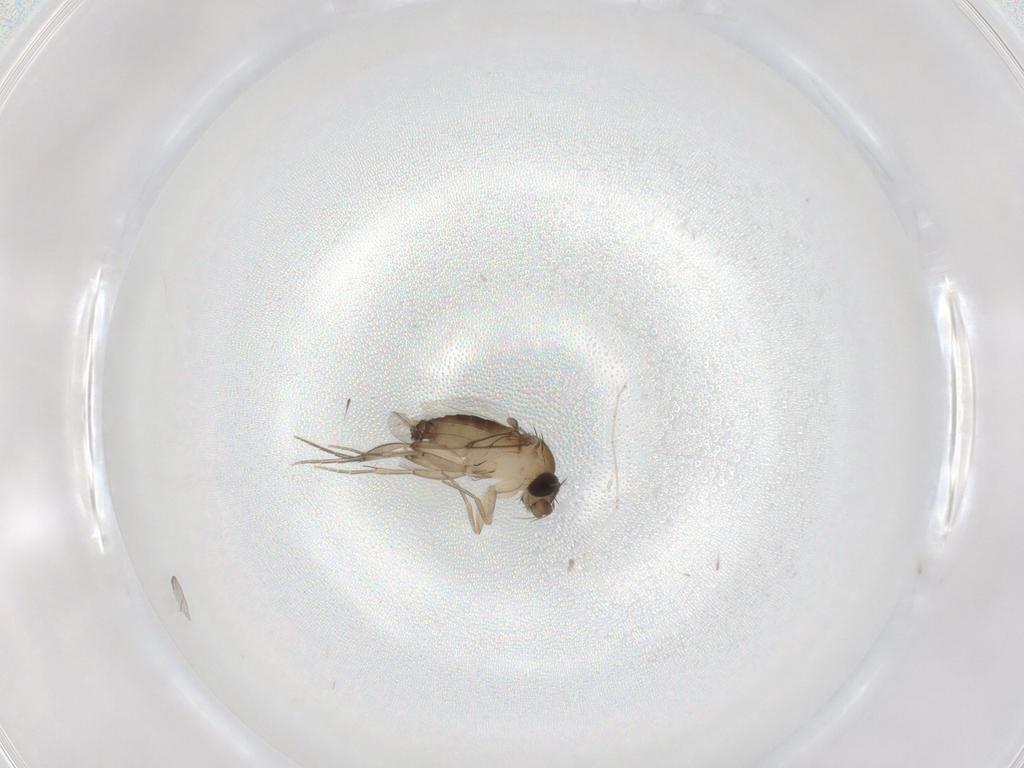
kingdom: Animalia
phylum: Arthropoda
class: Insecta
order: Diptera
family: Phoridae
